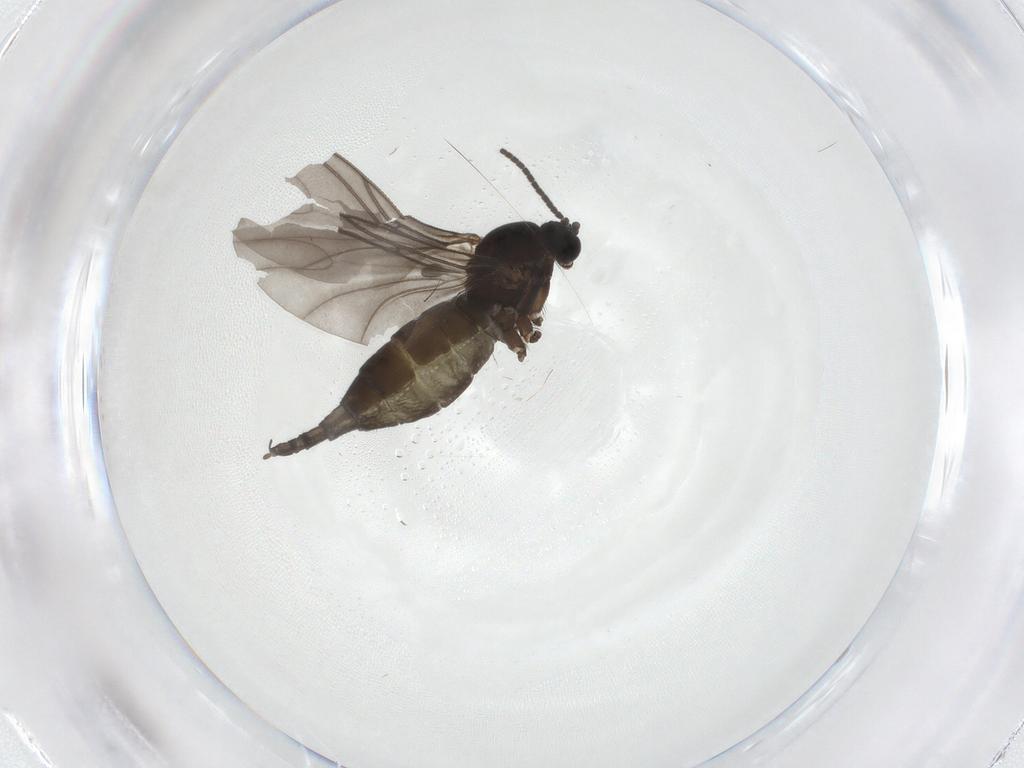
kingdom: Animalia
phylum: Arthropoda
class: Insecta
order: Diptera
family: Sciaridae
